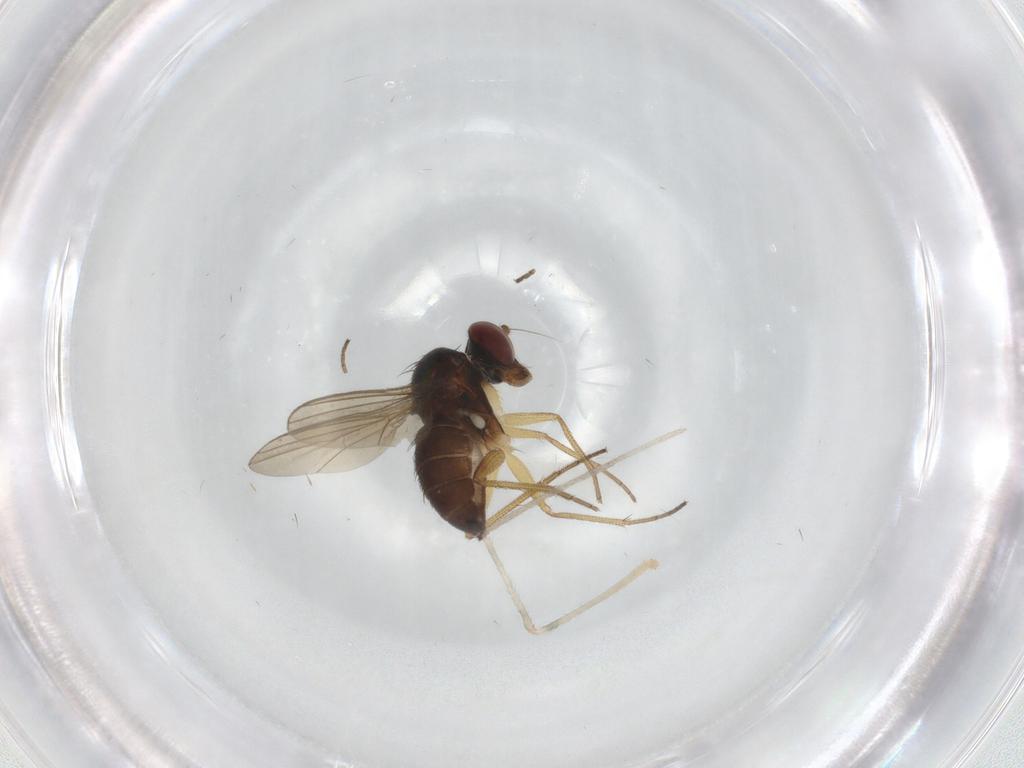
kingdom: Animalia
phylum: Arthropoda
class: Insecta
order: Diptera
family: Dolichopodidae
